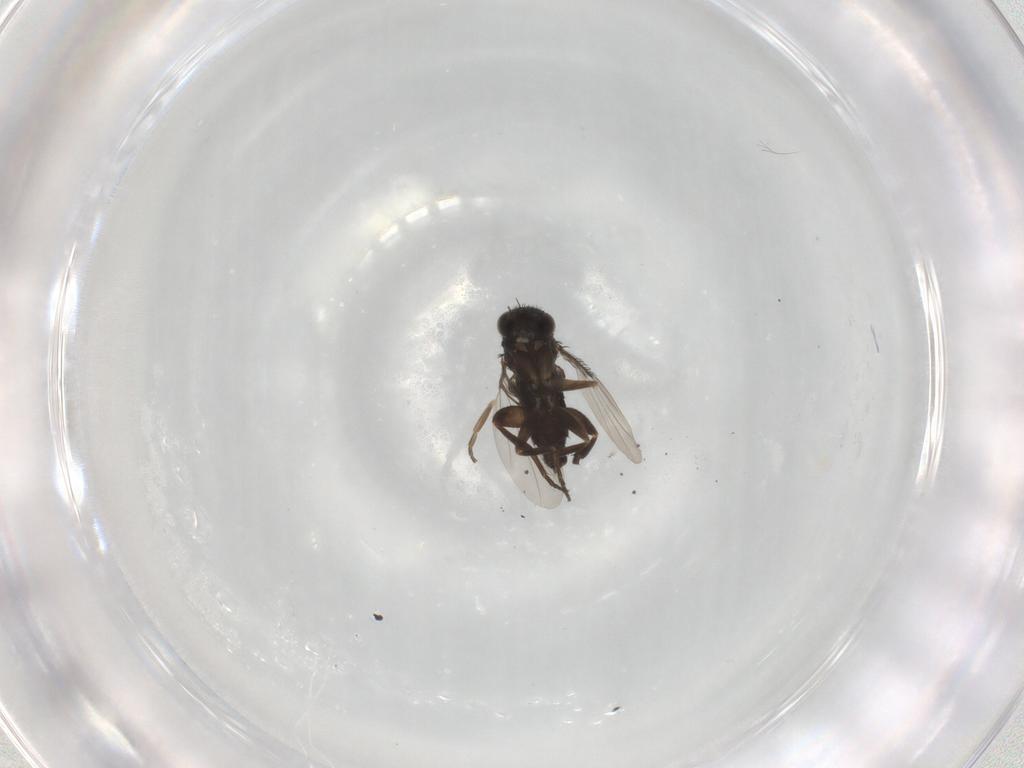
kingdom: Animalia
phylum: Arthropoda
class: Insecta
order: Diptera
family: Phoridae
